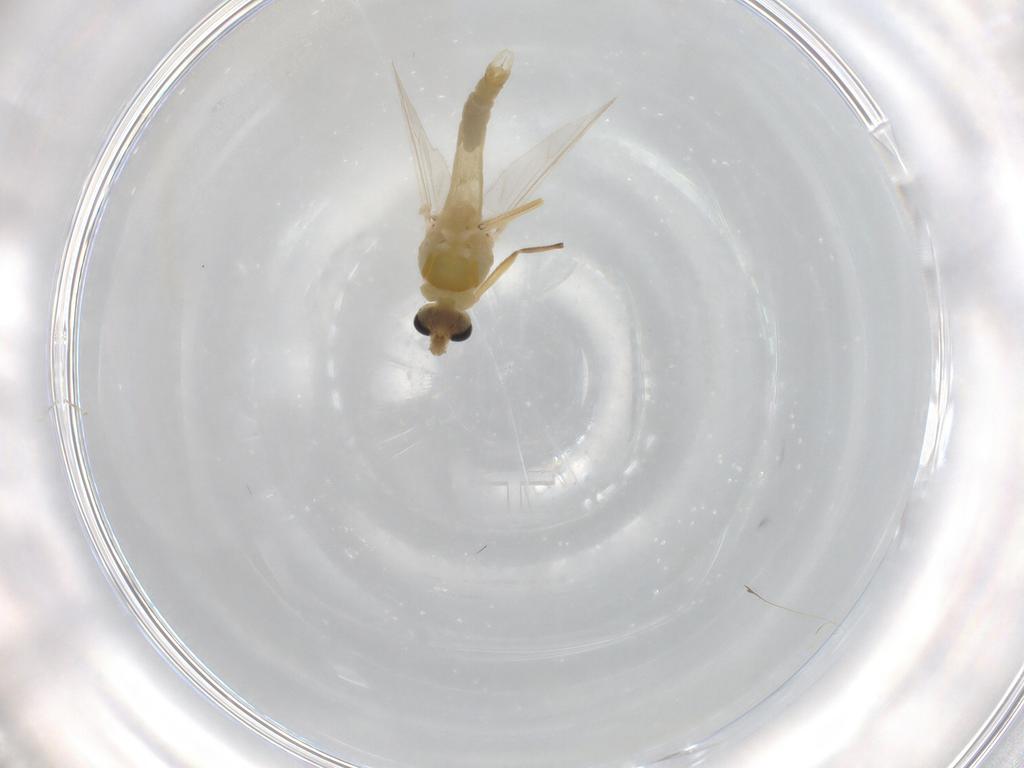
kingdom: Animalia
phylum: Arthropoda
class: Insecta
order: Diptera
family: Chironomidae
